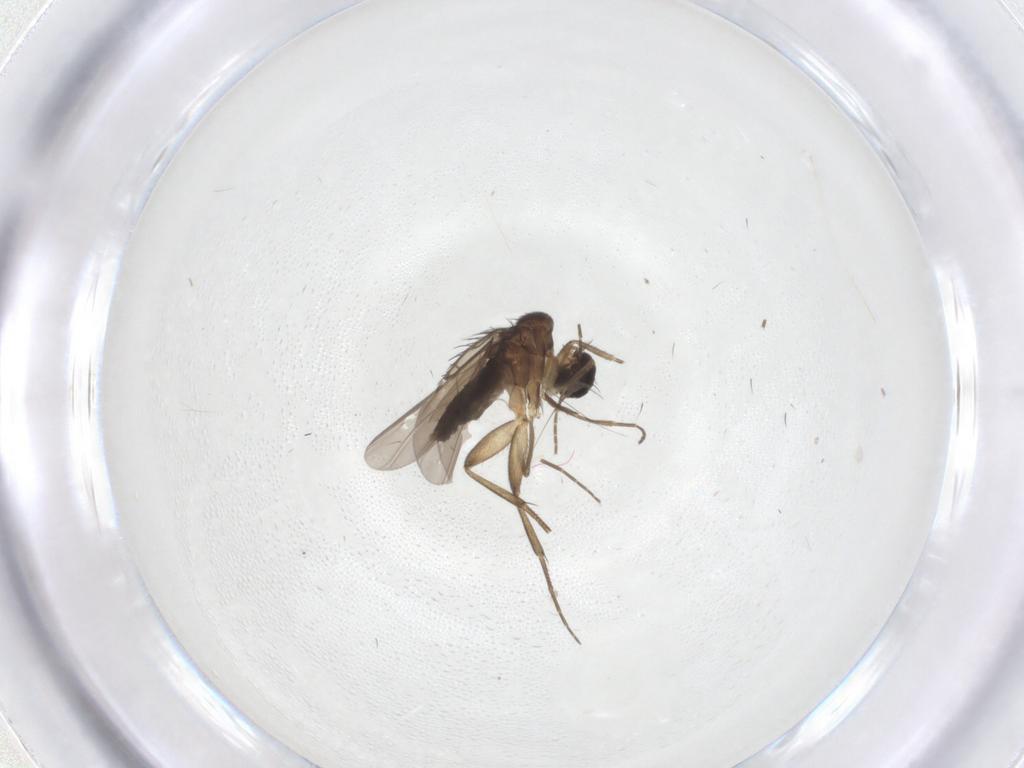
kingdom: Animalia
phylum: Arthropoda
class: Insecta
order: Diptera
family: Phoridae
